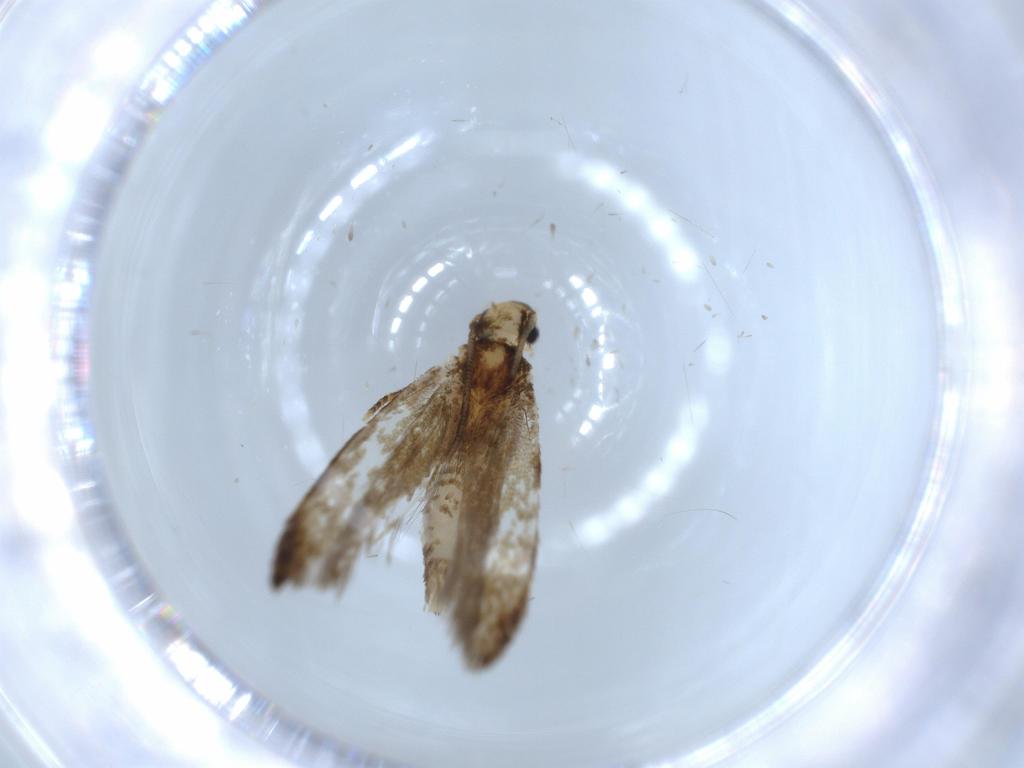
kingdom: Animalia
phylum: Arthropoda
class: Insecta
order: Lepidoptera
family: Tineidae
